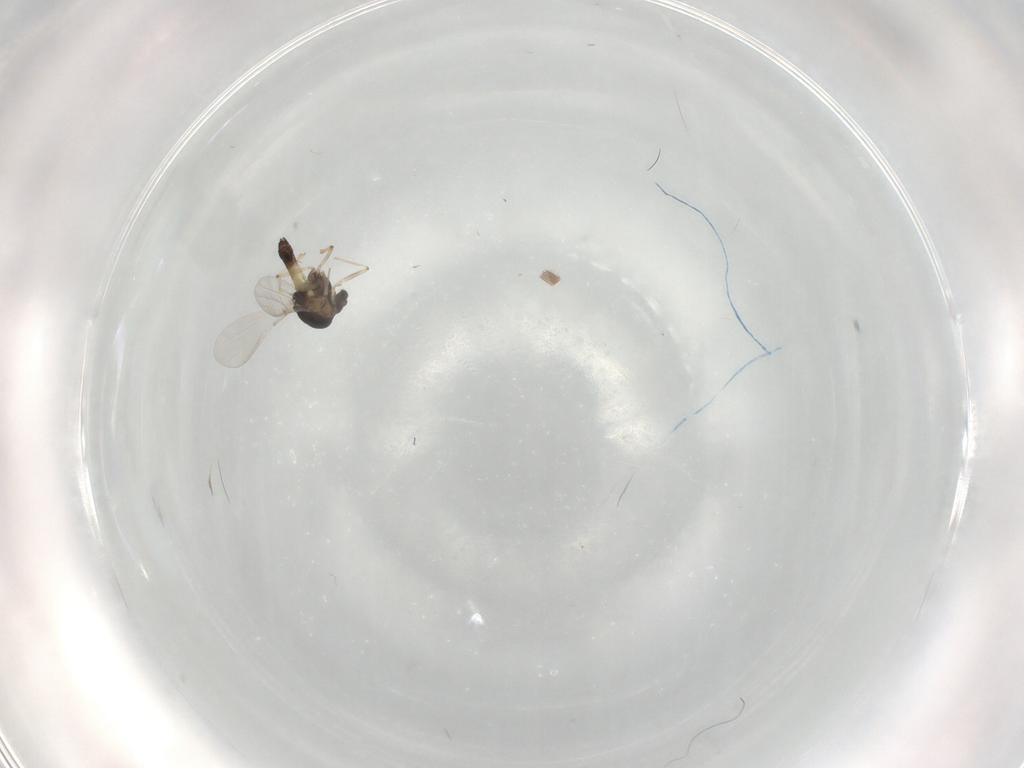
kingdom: Animalia
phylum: Arthropoda
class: Insecta
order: Diptera
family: Chironomidae
